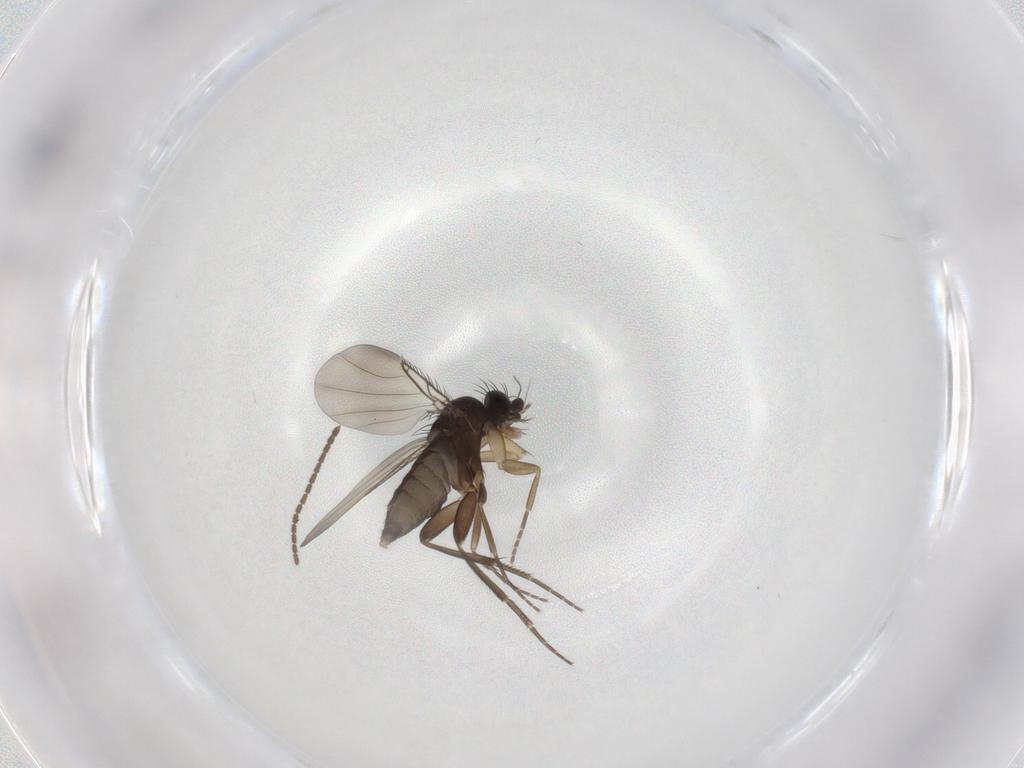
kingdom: Animalia
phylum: Arthropoda
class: Insecta
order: Diptera
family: Phoridae
